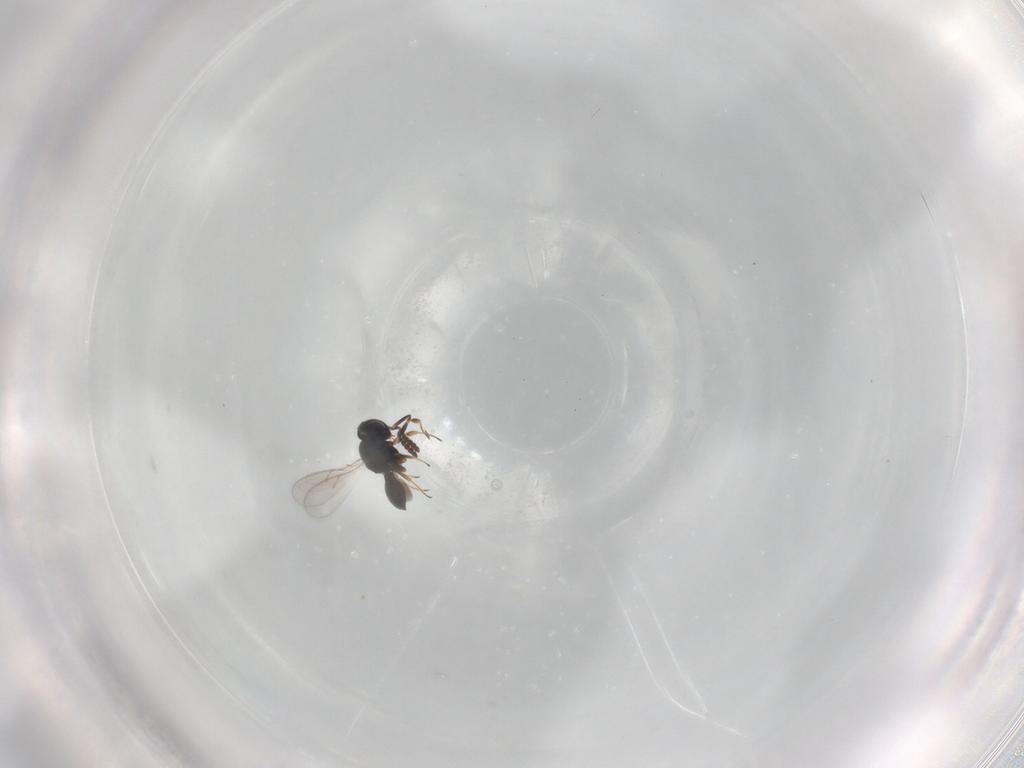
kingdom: Animalia
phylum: Arthropoda
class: Insecta
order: Hymenoptera
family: Scelionidae
